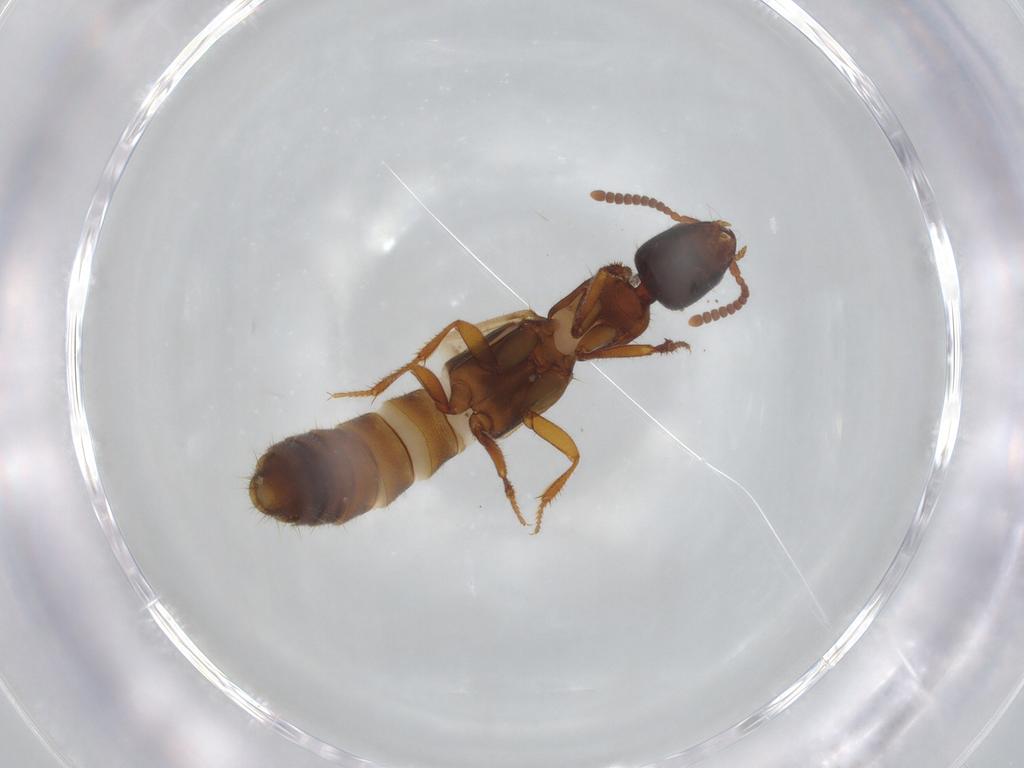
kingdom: Animalia
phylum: Arthropoda
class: Insecta
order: Coleoptera
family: Staphylinidae
